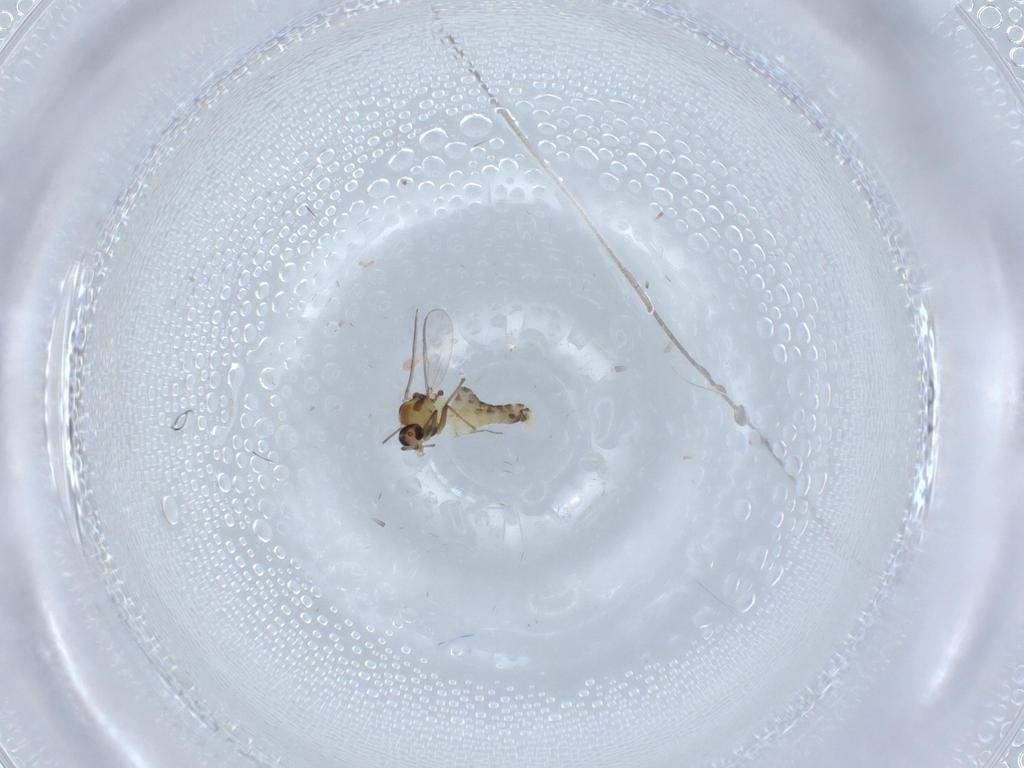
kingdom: Animalia
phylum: Arthropoda
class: Insecta
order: Diptera
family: Chironomidae
